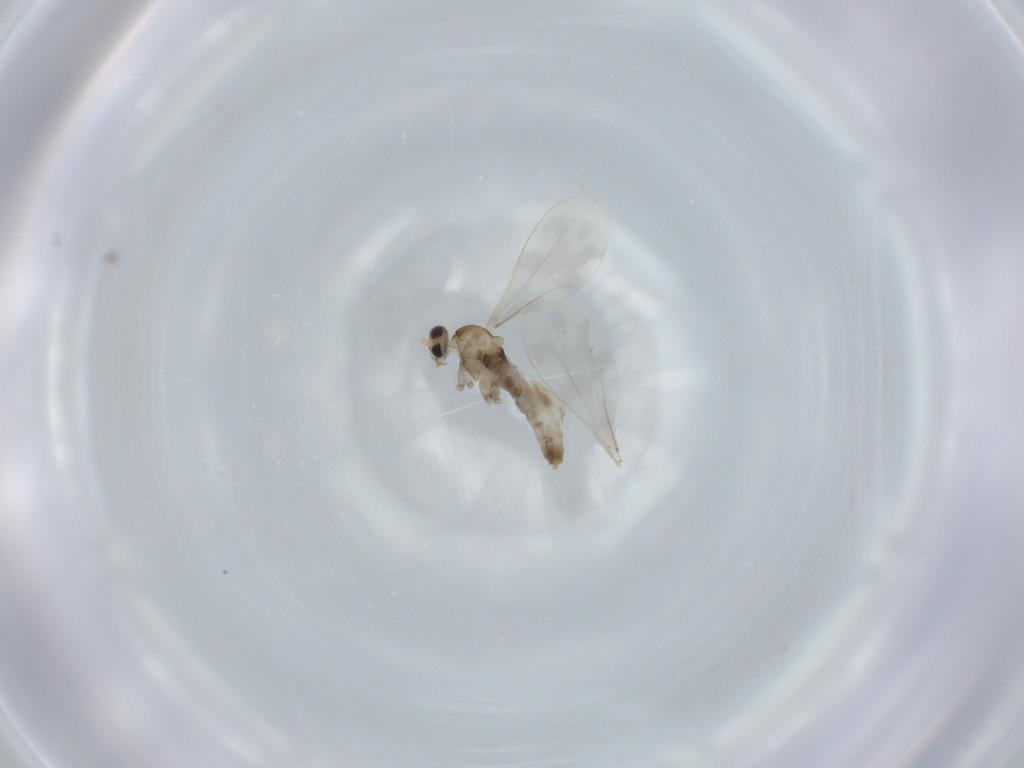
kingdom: Animalia
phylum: Arthropoda
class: Insecta
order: Diptera
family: Cecidomyiidae
